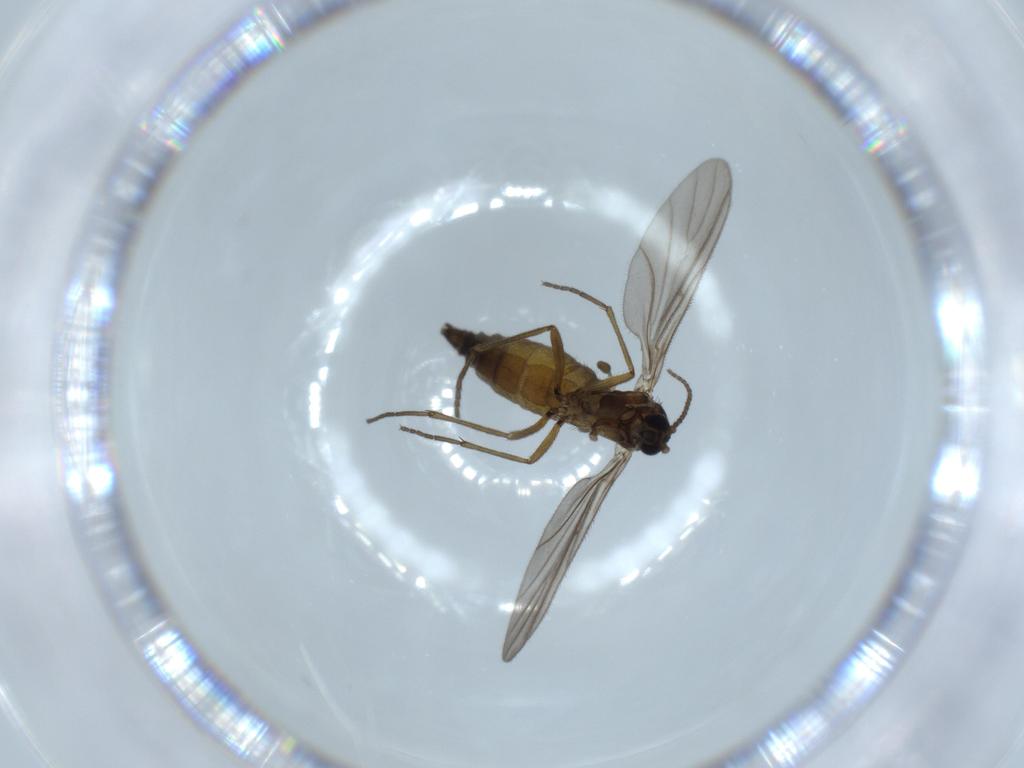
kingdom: Animalia
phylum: Arthropoda
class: Insecta
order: Diptera
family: Sciaridae
